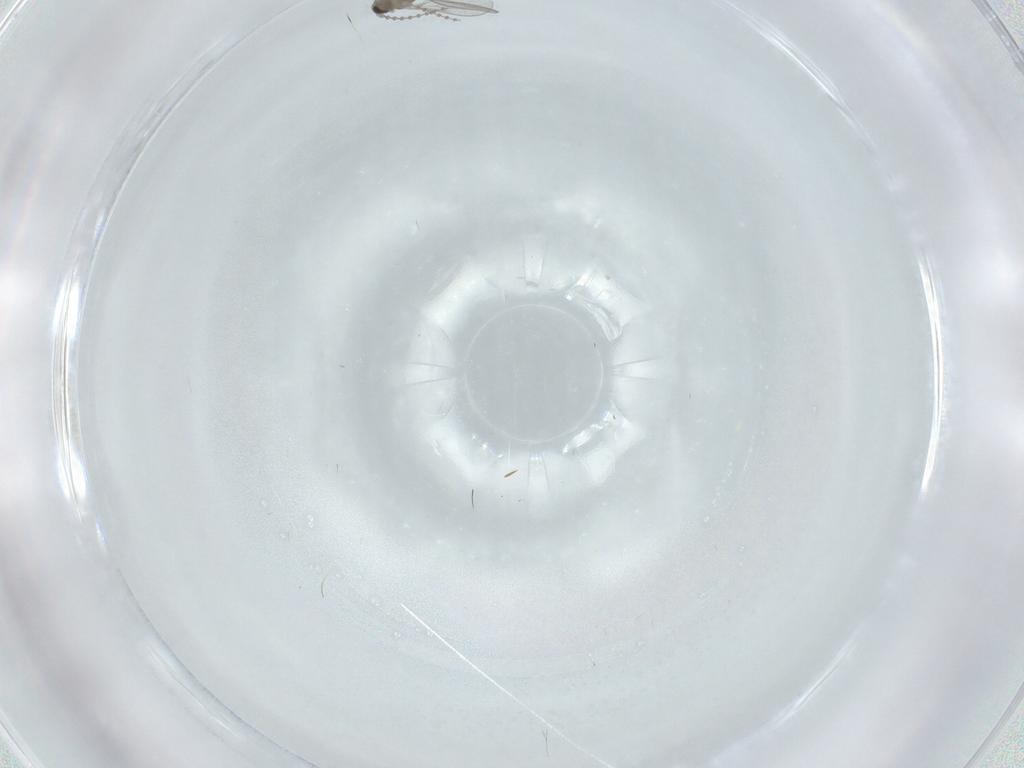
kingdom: Animalia
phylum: Arthropoda
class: Insecta
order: Diptera
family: Cecidomyiidae
